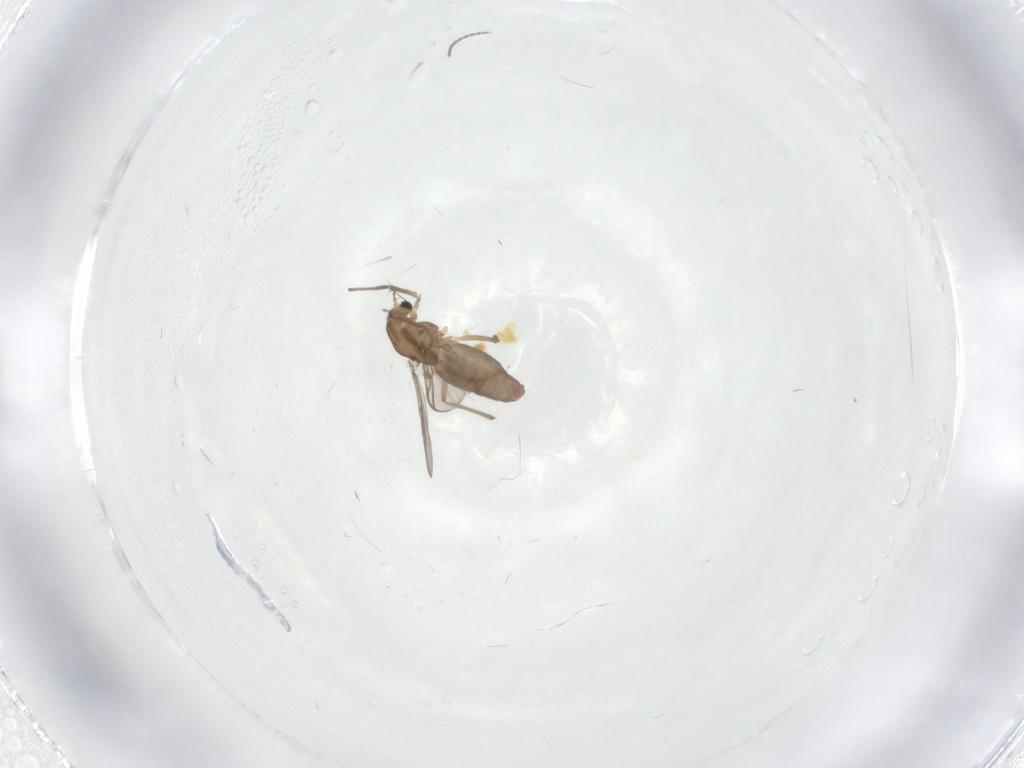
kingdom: Animalia
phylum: Arthropoda
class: Insecta
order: Diptera
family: Chironomidae
